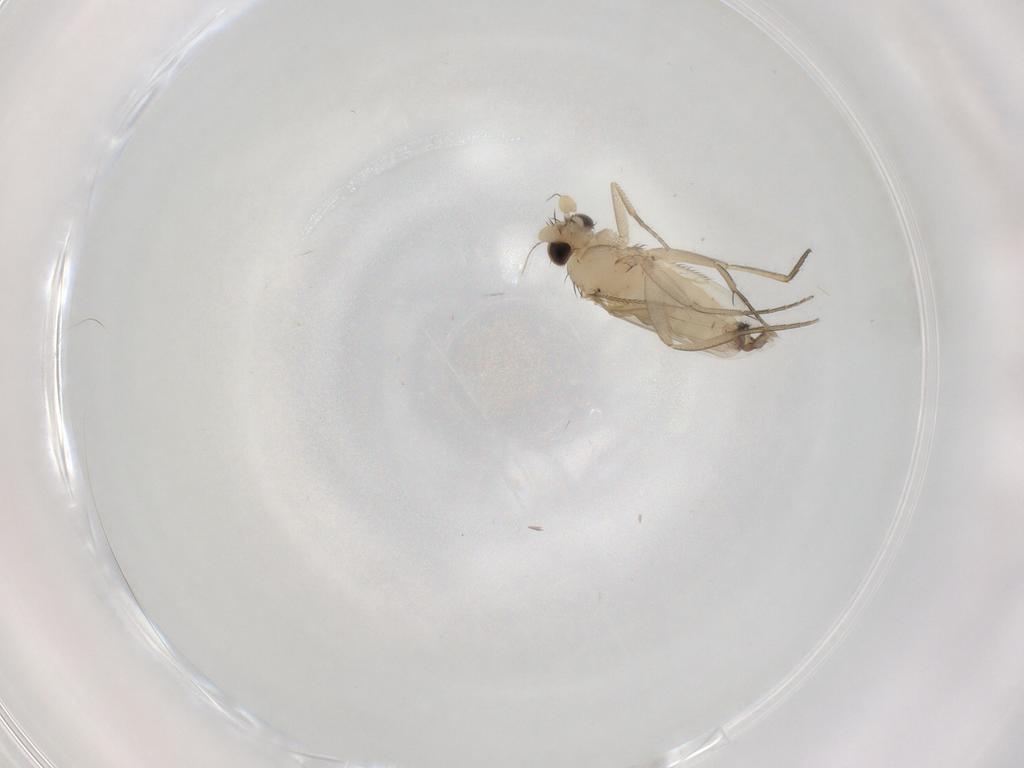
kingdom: Animalia
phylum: Arthropoda
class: Insecta
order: Diptera
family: Phoridae
